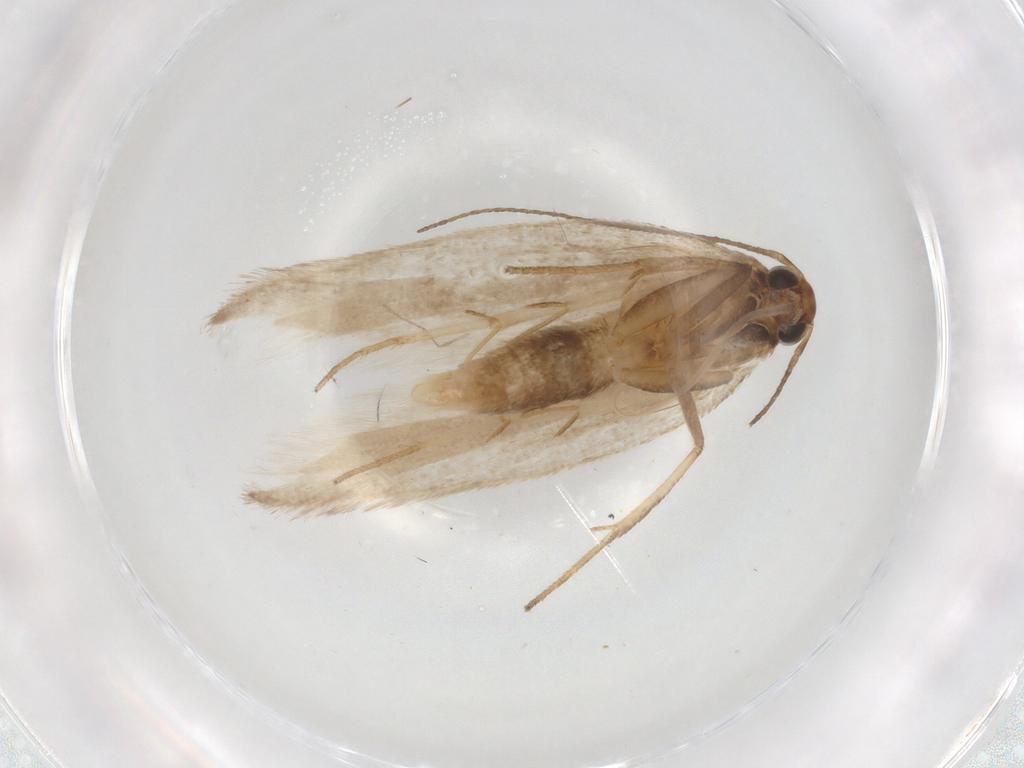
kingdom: Animalia
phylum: Arthropoda
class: Insecta
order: Lepidoptera
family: Gelechiidae
